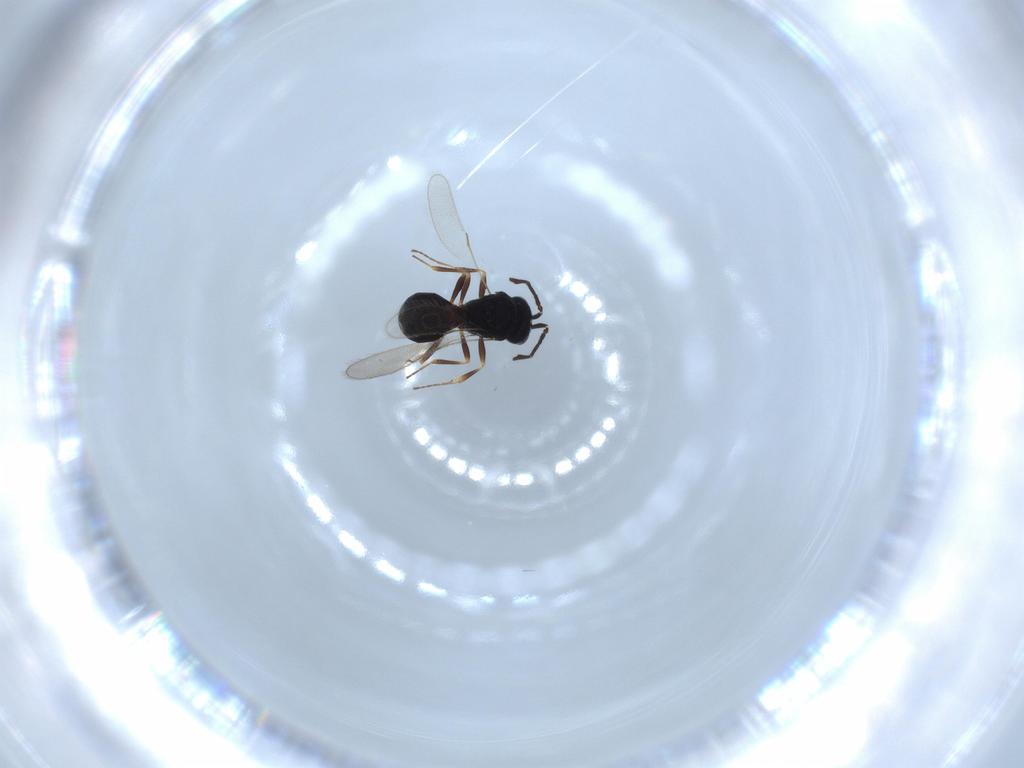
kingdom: Animalia
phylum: Arthropoda
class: Insecta
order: Hymenoptera
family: Scelionidae
